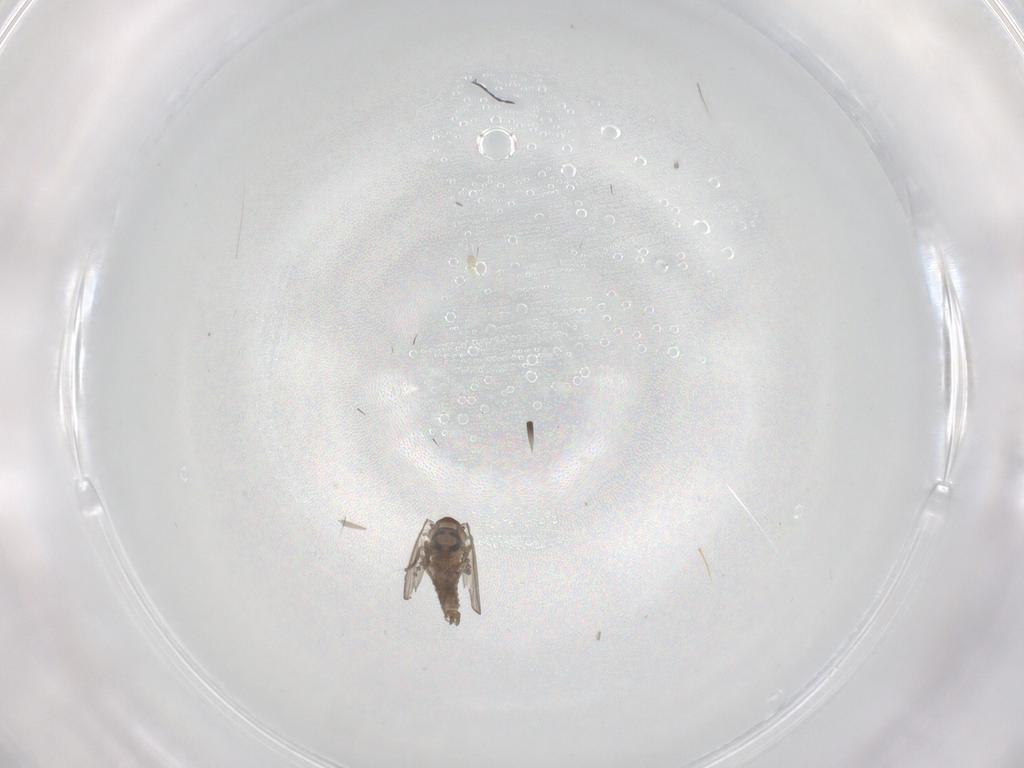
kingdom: Animalia
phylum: Arthropoda
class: Insecta
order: Diptera
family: Psychodidae
